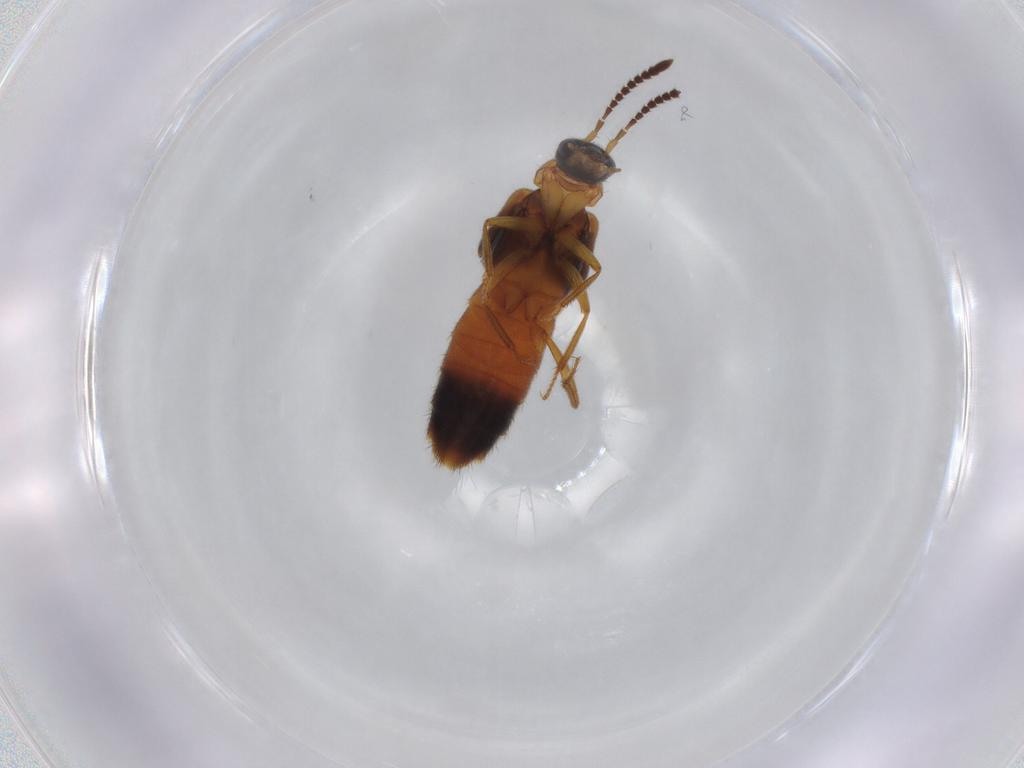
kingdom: Animalia
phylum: Arthropoda
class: Insecta
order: Coleoptera
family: Staphylinidae
